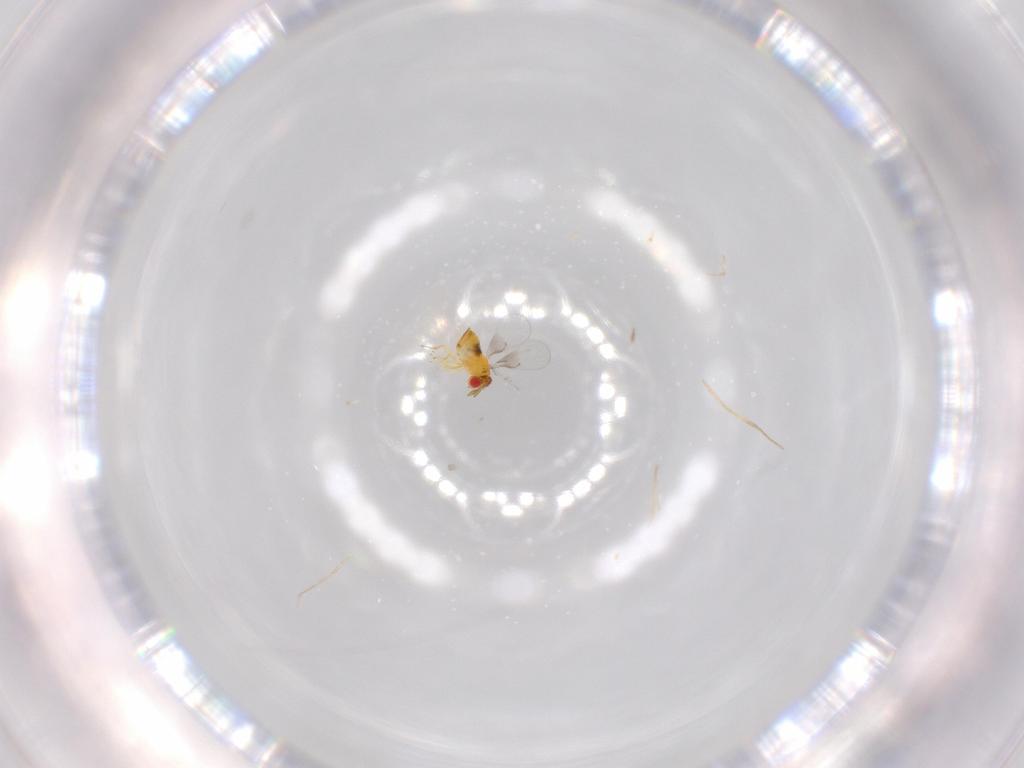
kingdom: Animalia
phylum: Arthropoda
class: Insecta
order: Hymenoptera
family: Trichogrammatidae
